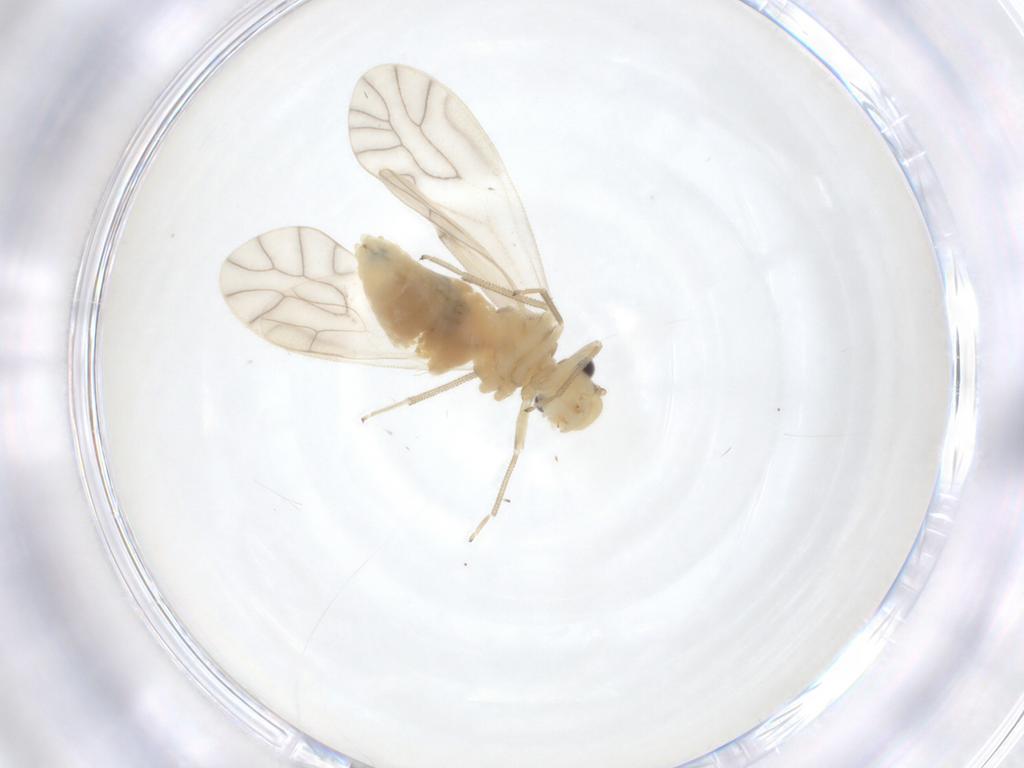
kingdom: Animalia
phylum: Arthropoda
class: Insecta
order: Psocodea
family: Caeciliusidae
